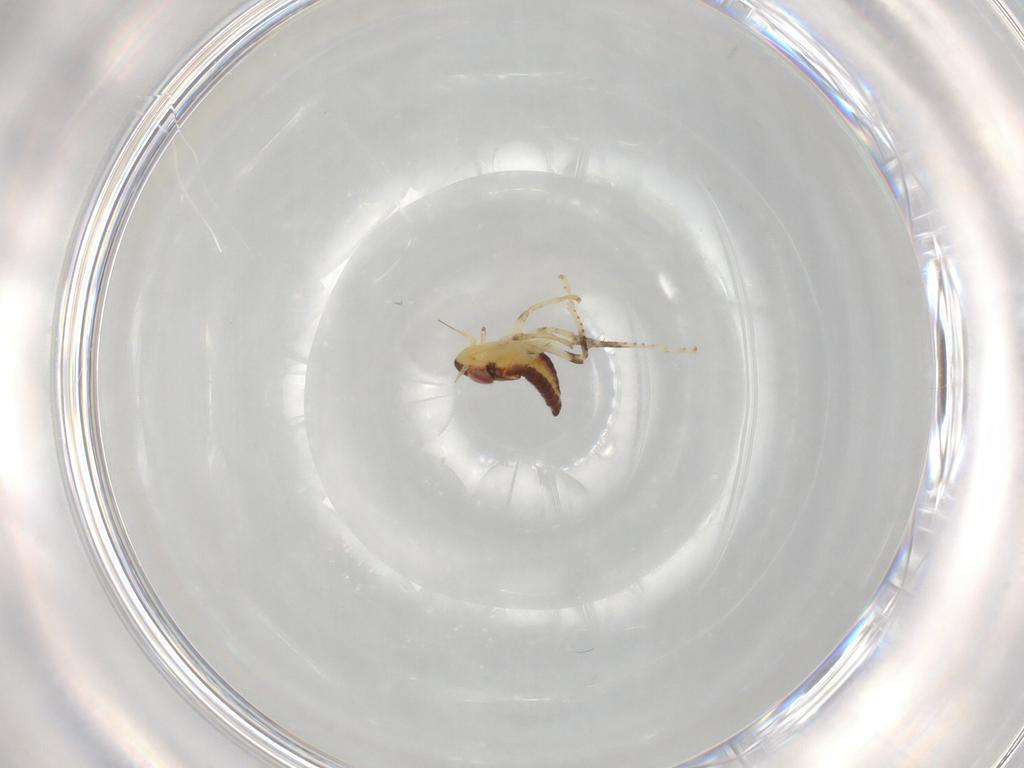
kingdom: Animalia
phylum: Arthropoda
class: Insecta
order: Hemiptera
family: Cicadellidae
